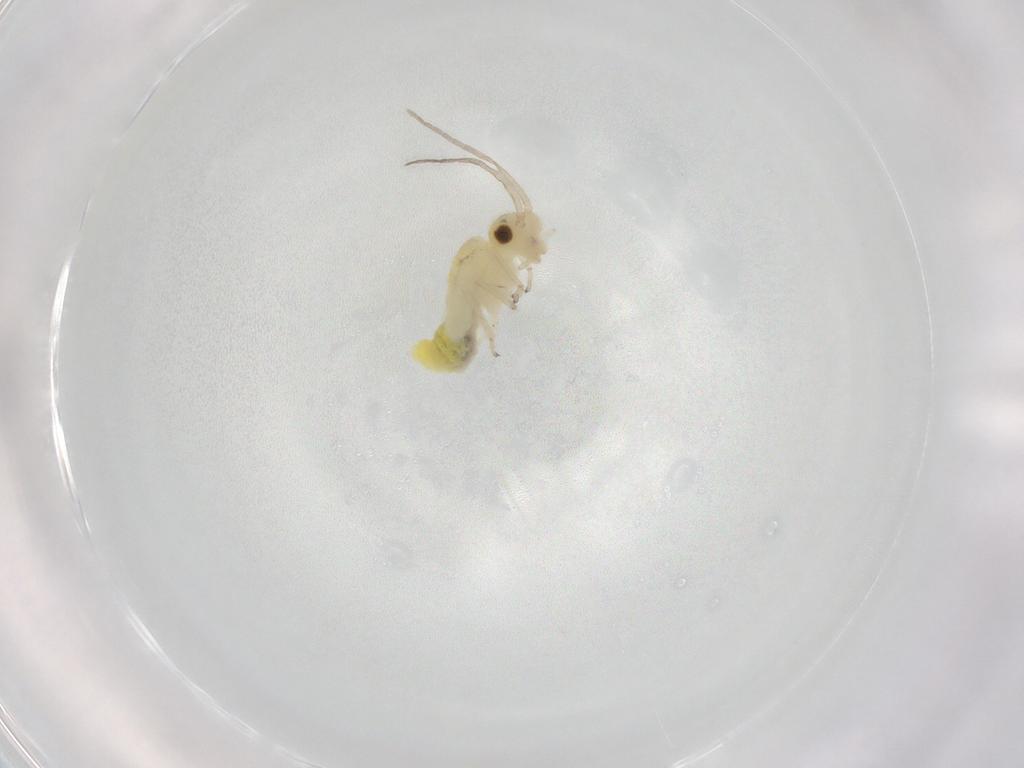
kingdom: Animalia
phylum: Arthropoda
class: Insecta
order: Psocodea
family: Caeciliusidae
